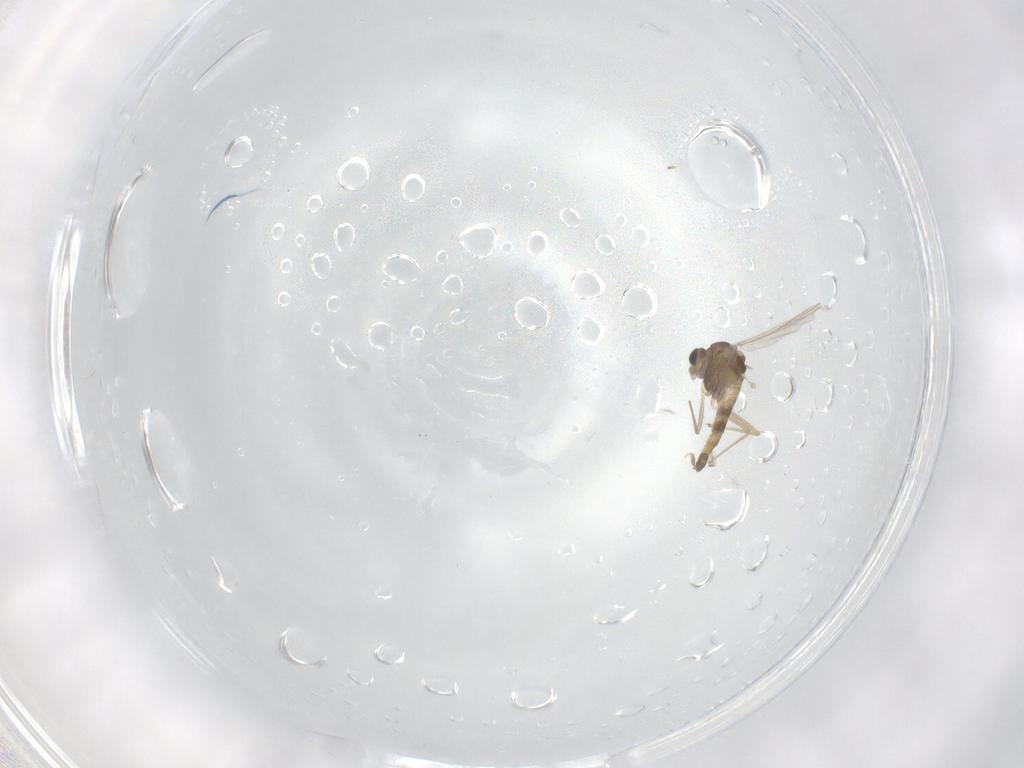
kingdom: Animalia
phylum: Arthropoda
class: Insecta
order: Diptera
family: Chironomidae
